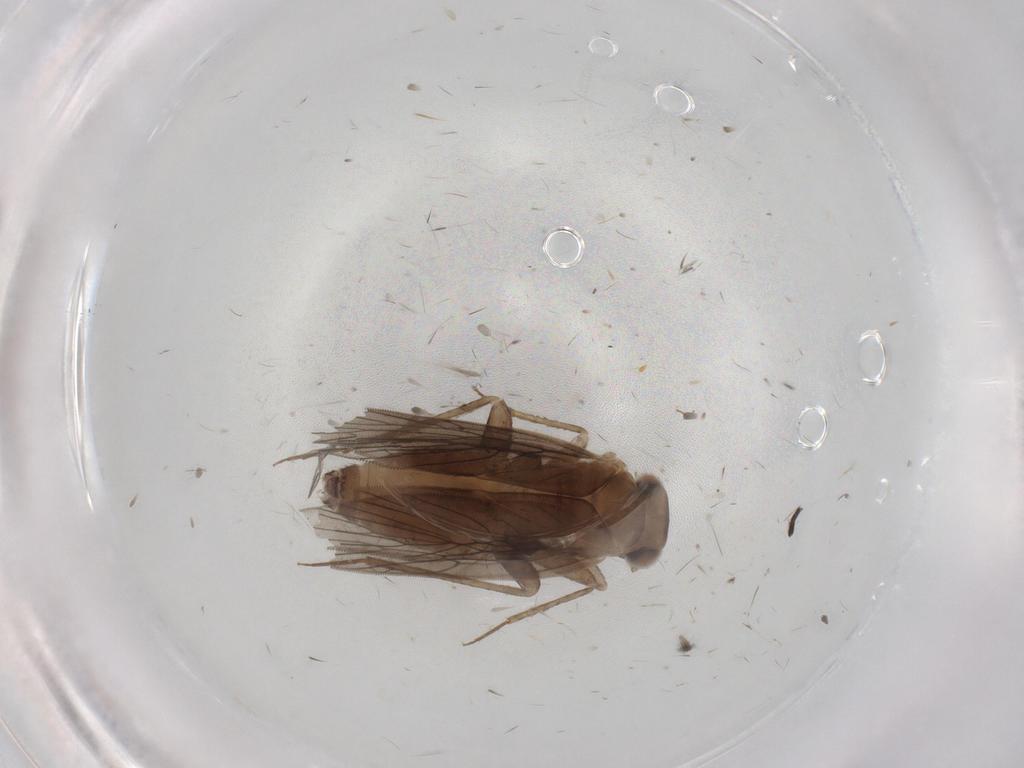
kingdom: Animalia
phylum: Arthropoda
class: Insecta
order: Psocodea
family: Lepidopsocidae
